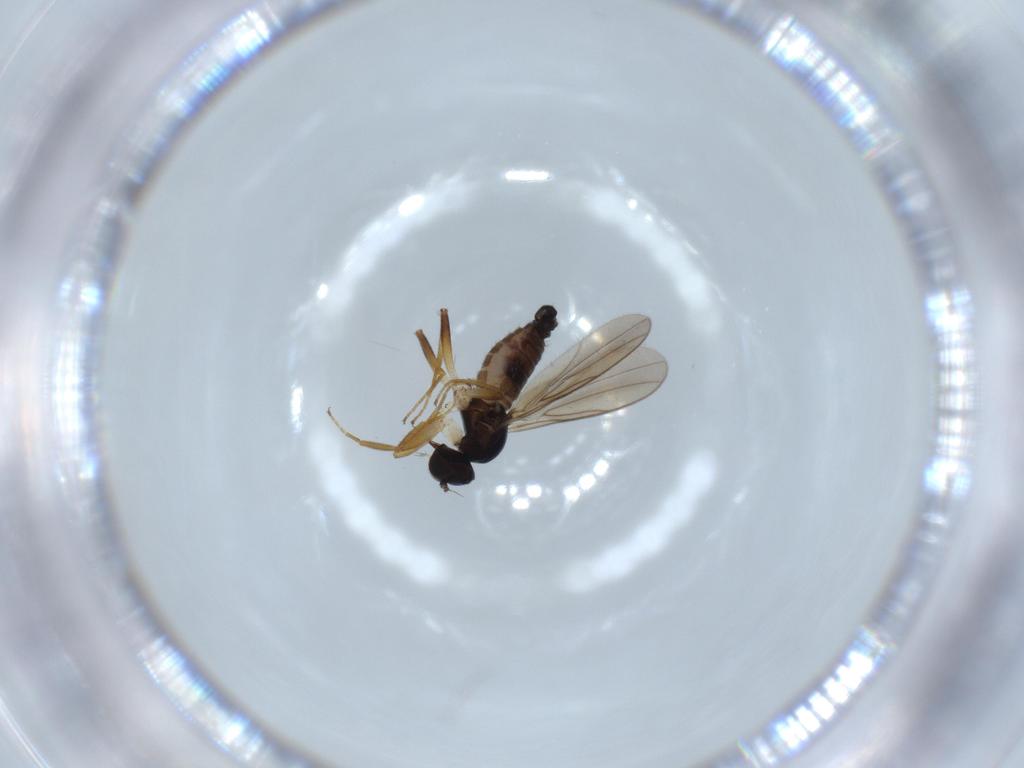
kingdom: Animalia
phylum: Arthropoda
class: Insecta
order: Diptera
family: Hybotidae
